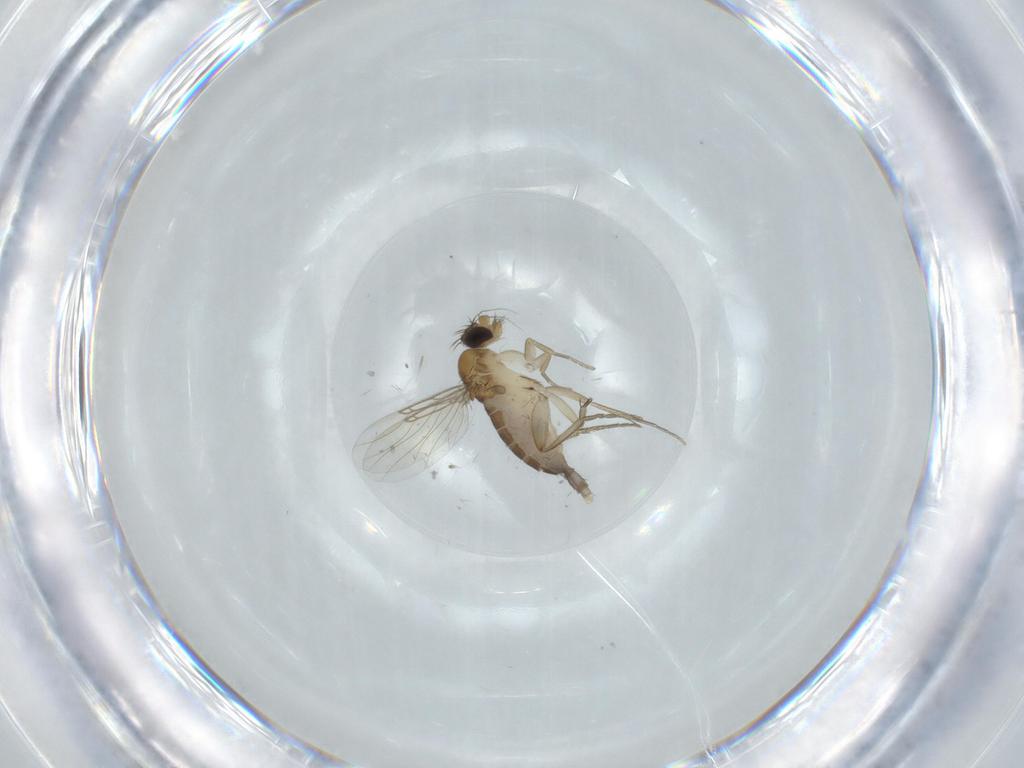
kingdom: Animalia
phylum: Arthropoda
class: Insecta
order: Diptera
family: Phoridae
